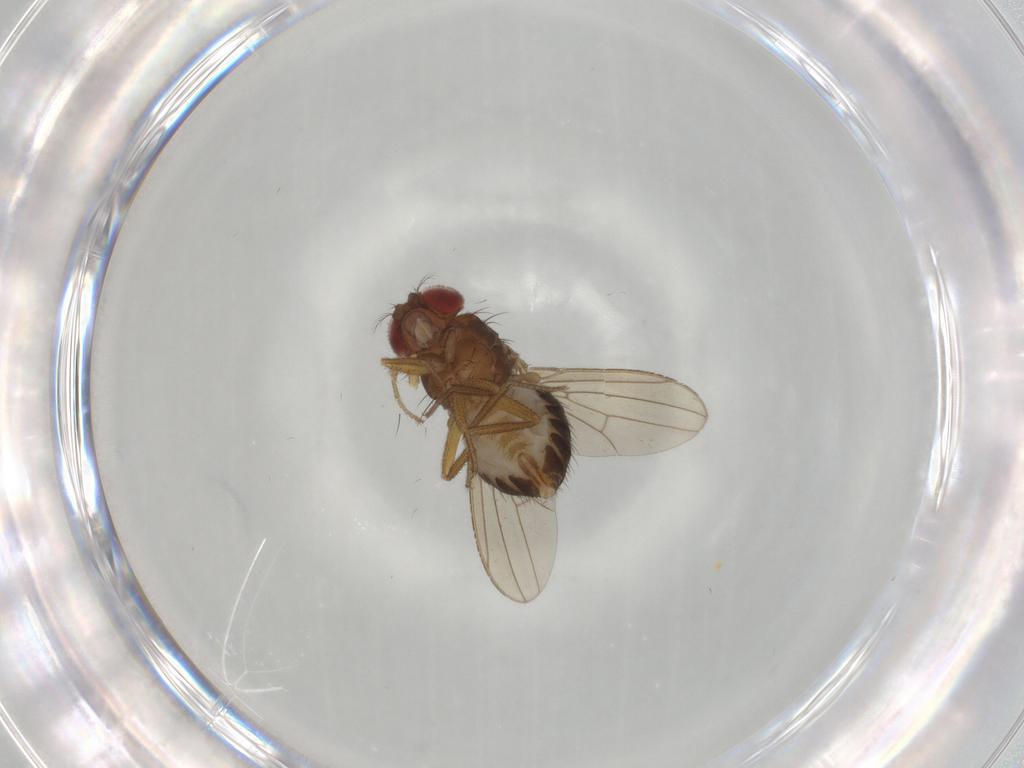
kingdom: Animalia
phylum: Arthropoda
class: Insecta
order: Diptera
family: Drosophilidae
